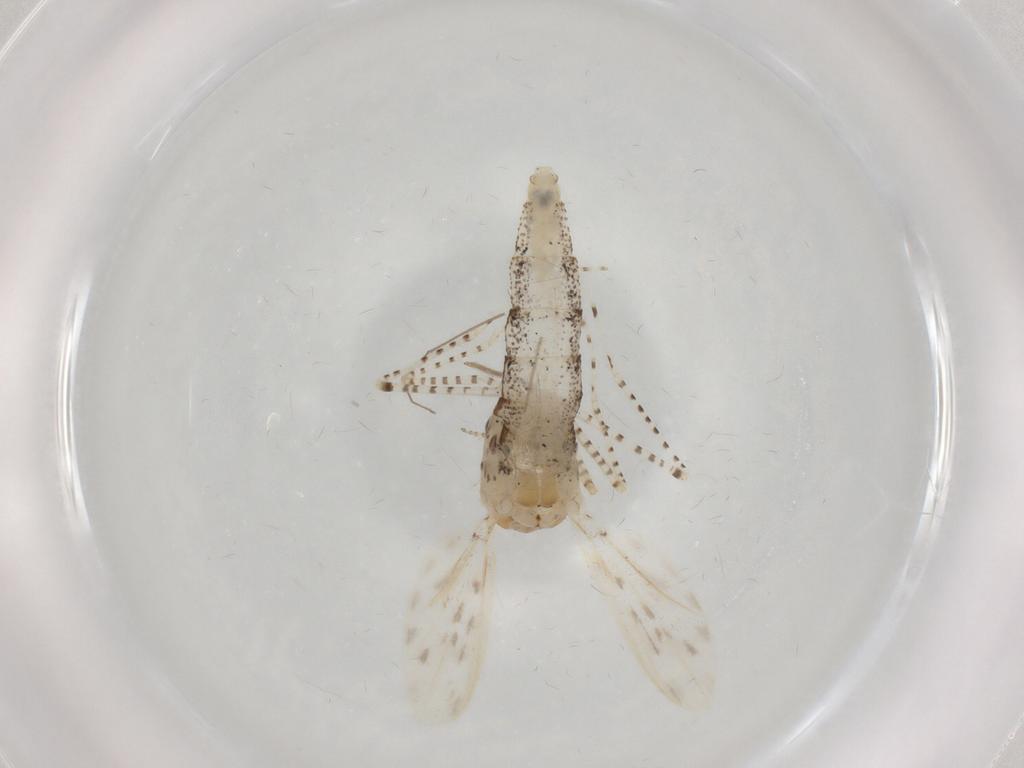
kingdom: Animalia
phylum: Arthropoda
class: Insecta
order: Diptera
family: Chaoboridae
